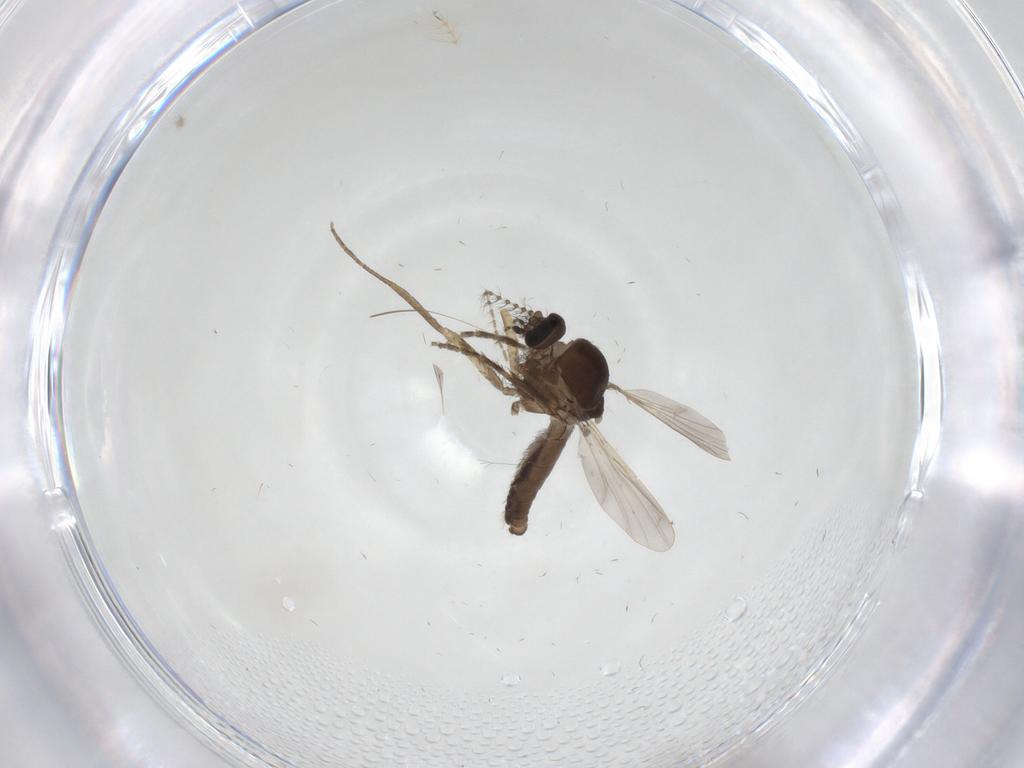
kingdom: Animalia
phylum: Arthropoda
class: Insecta
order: Diptera
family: Ceratopogonidae
